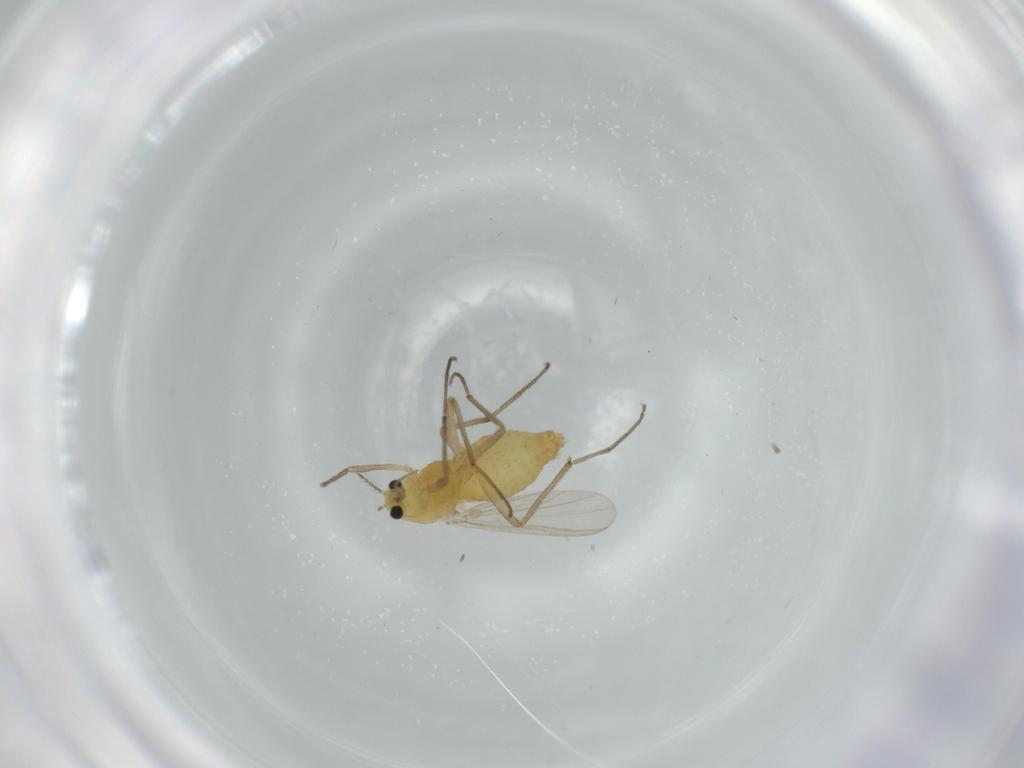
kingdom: Animalia
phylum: Arthropoda
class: Insecta
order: Diptera
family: Chironomidae
